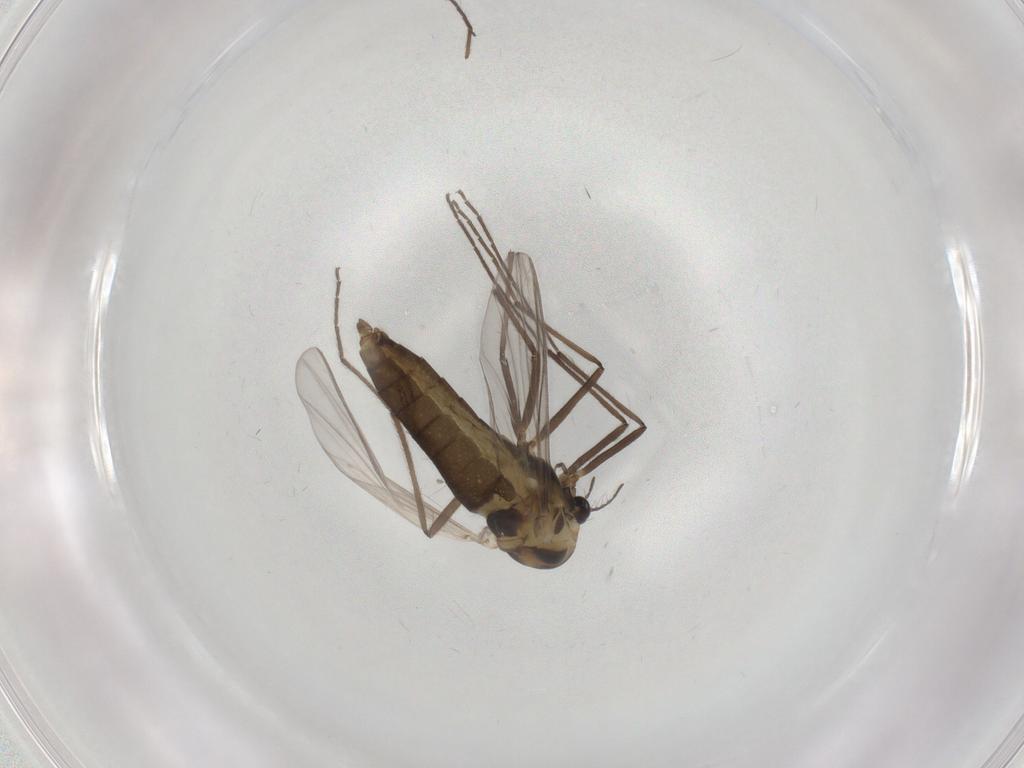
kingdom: Animalia
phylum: Arthropoda
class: Insecta
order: Diptera
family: Chironomidae
